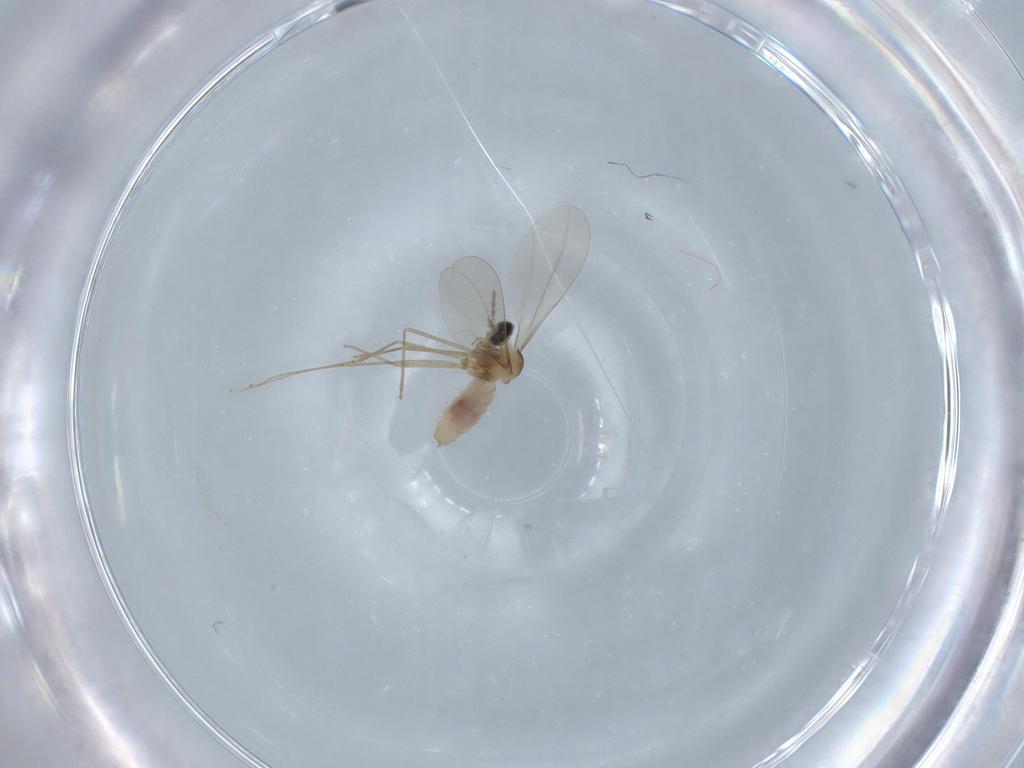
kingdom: Animalia
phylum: Arthropoda
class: Insecta
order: Diptera
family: Cecidomyiidae
